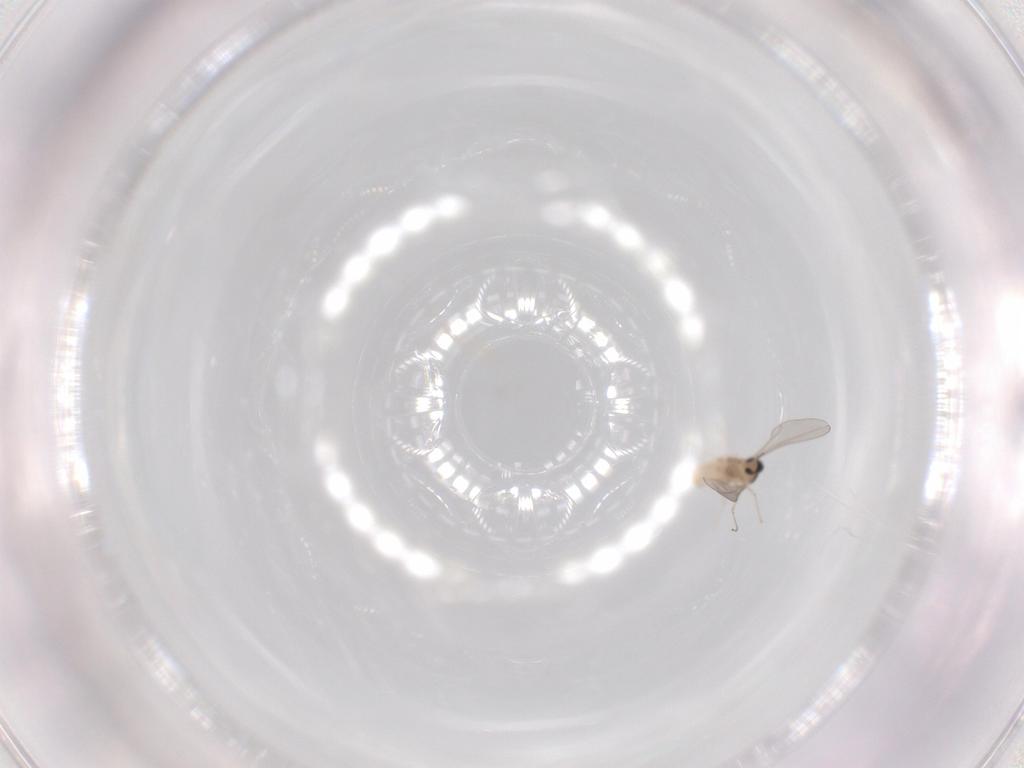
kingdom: Animalia
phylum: Arthropoda
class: Insecta
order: Diptera
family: Cecidomyiidae
